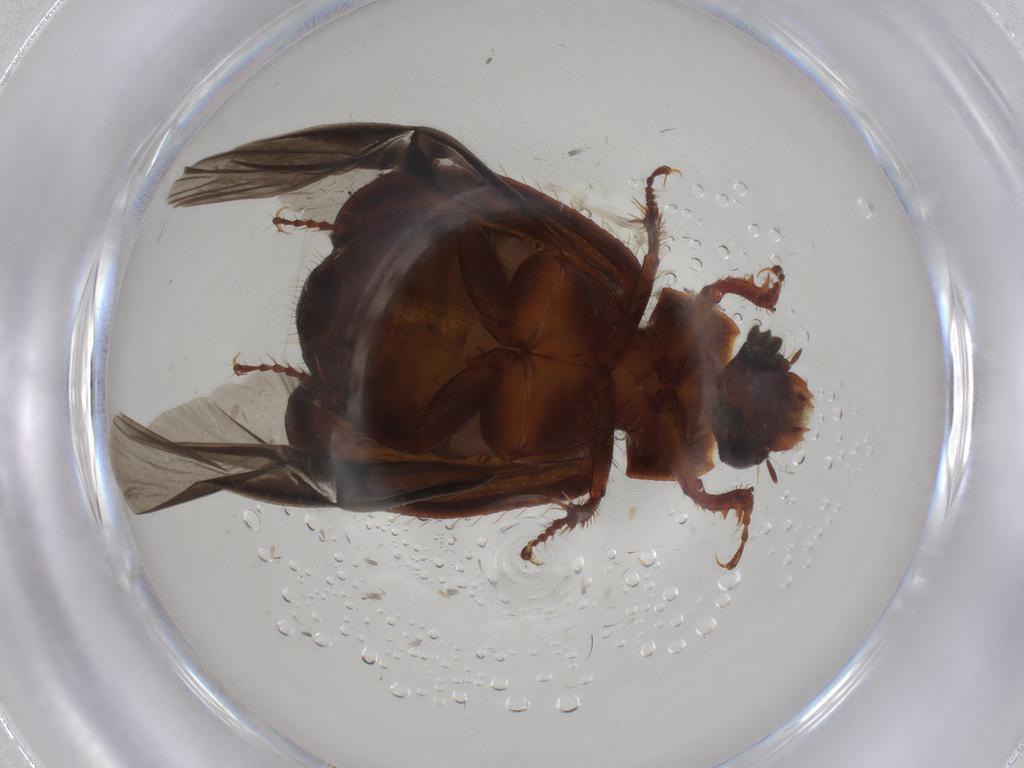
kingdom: Animalia
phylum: Arthropoda
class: Insecta
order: Coleoptera
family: Hybosoridae
